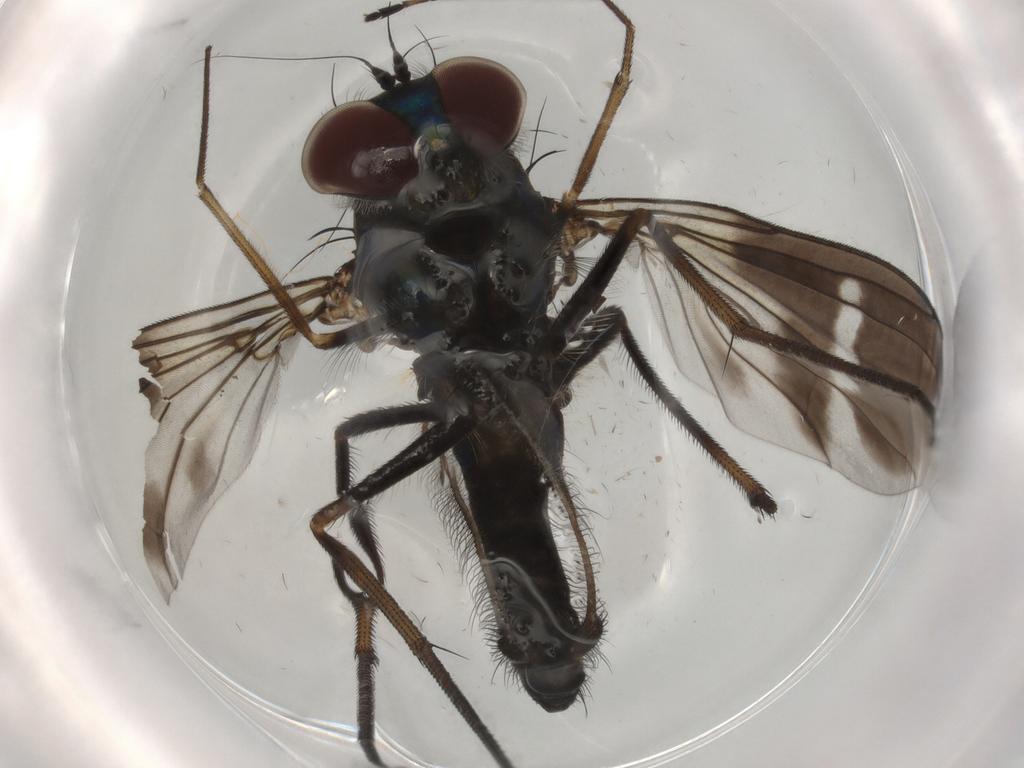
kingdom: Animalia
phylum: Arthropoda
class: Insecta
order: Diptera
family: Dolichopodidae
